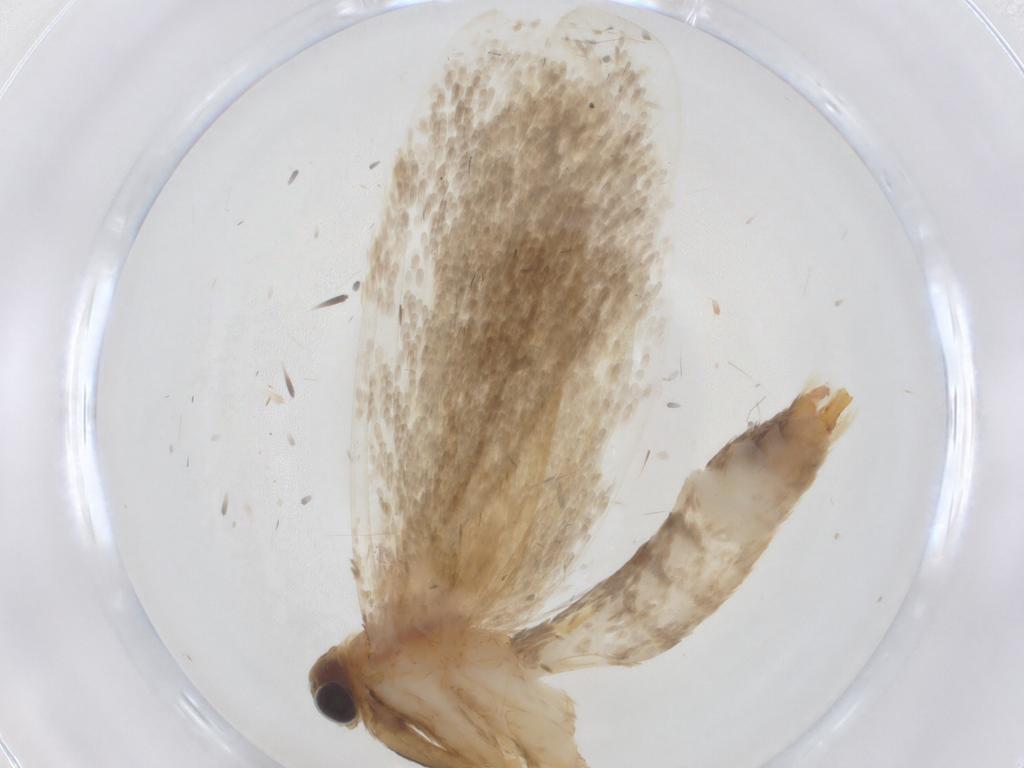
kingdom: Animalia
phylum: Arthropoda
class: Insecta
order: Lepidoptera
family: Tineidae
